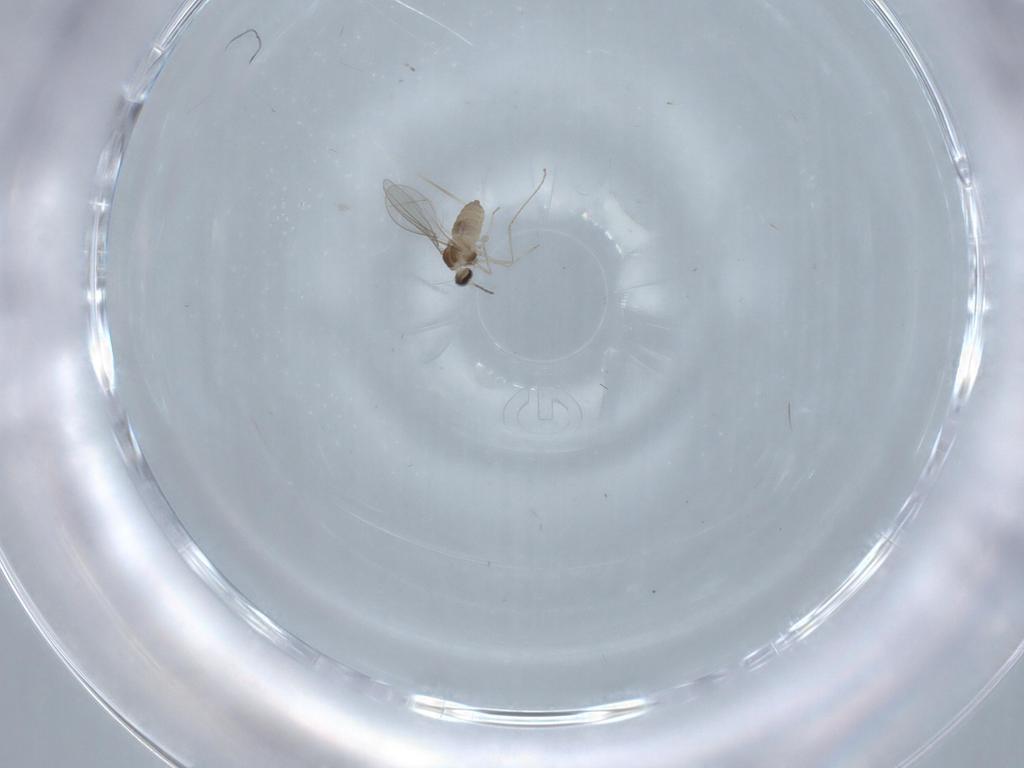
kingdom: Animalia
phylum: Arthropoda
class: Insecta
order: Diptera
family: Cecidomyiidae
